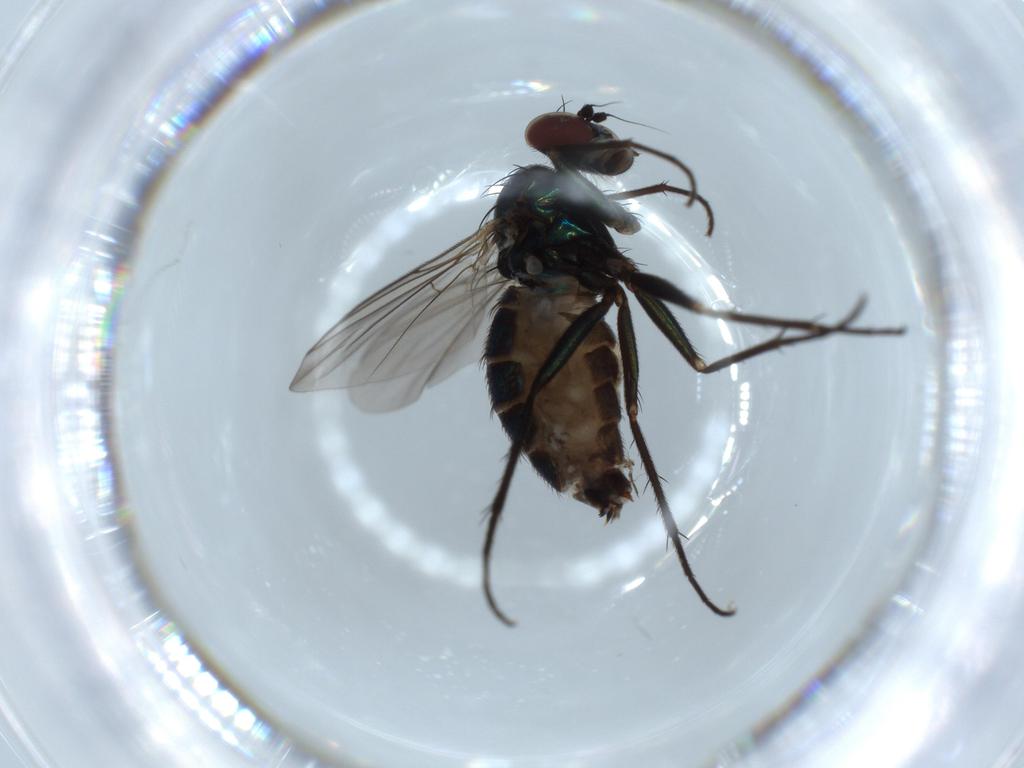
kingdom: Animalia
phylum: Arthropoda
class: Insecta
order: Diptera
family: Dolichopodidae
